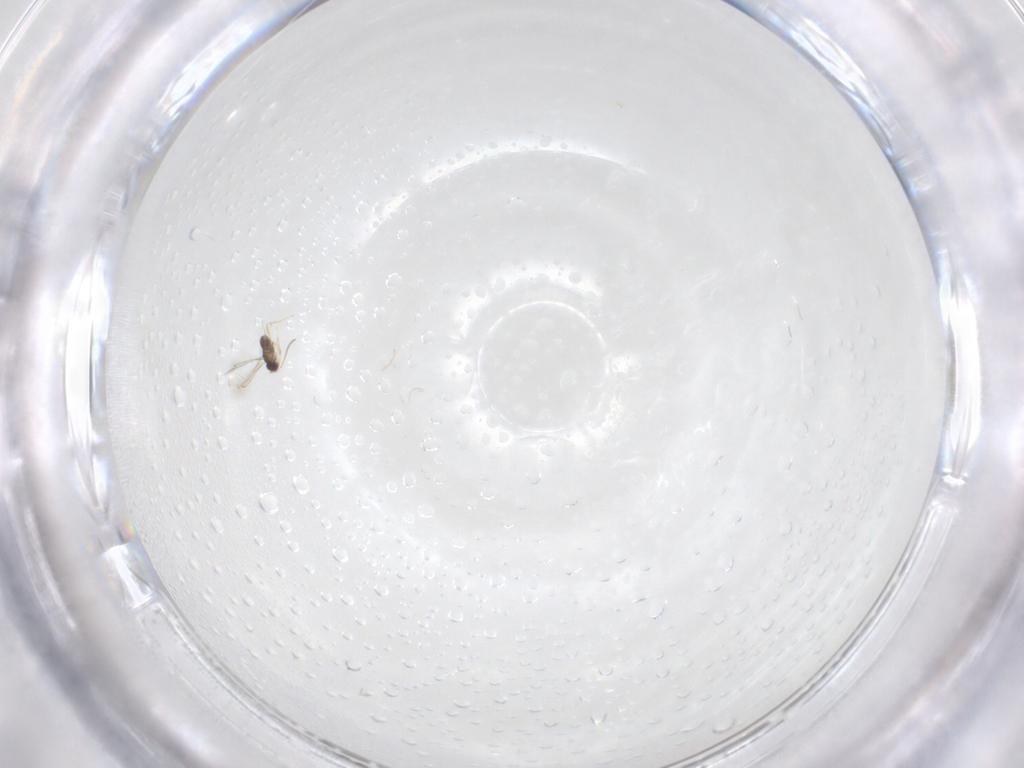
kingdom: Animalia
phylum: Arthropoda
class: Insecta
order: Hymenoptera
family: Mymaridae
